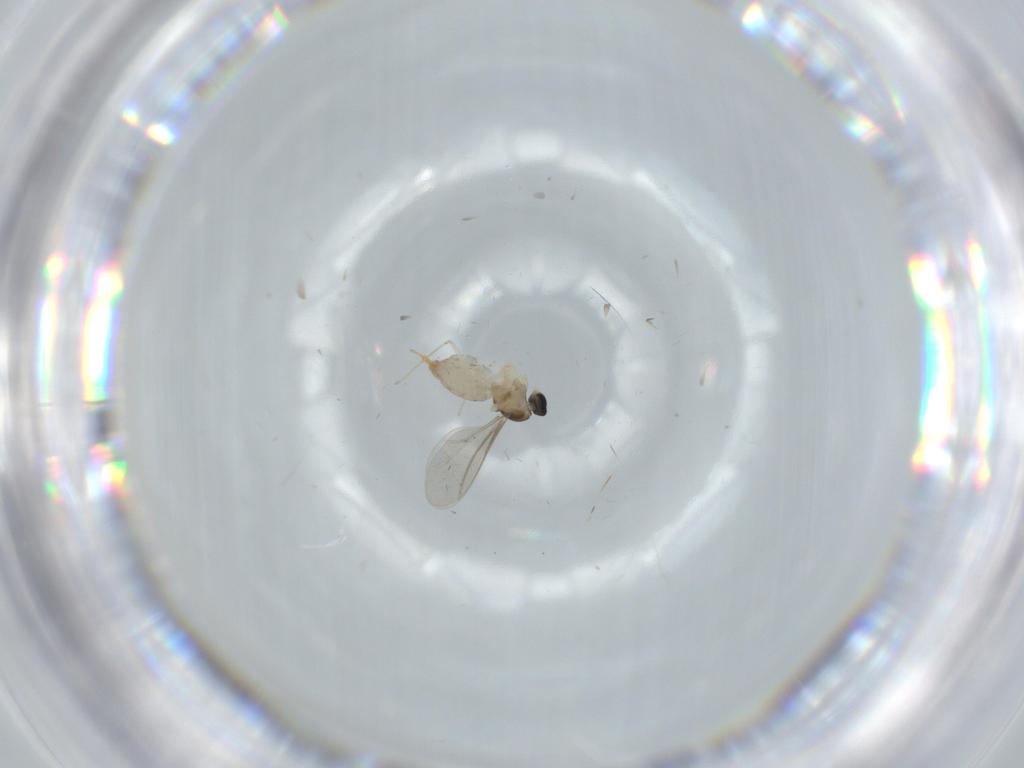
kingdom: Animalia
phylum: Arthropoda
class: Insecta
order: Diptera
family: Cecidomyiidae
